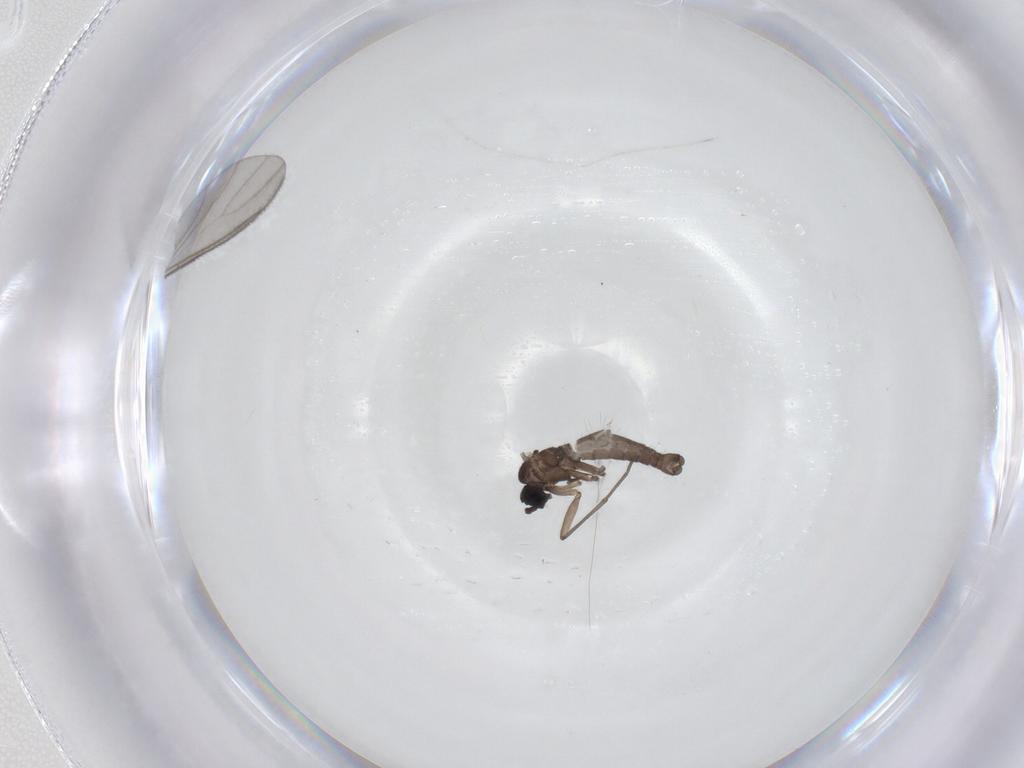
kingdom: Animalia
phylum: Arthropoda
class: Insecta
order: Diptera
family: Sciaridae
